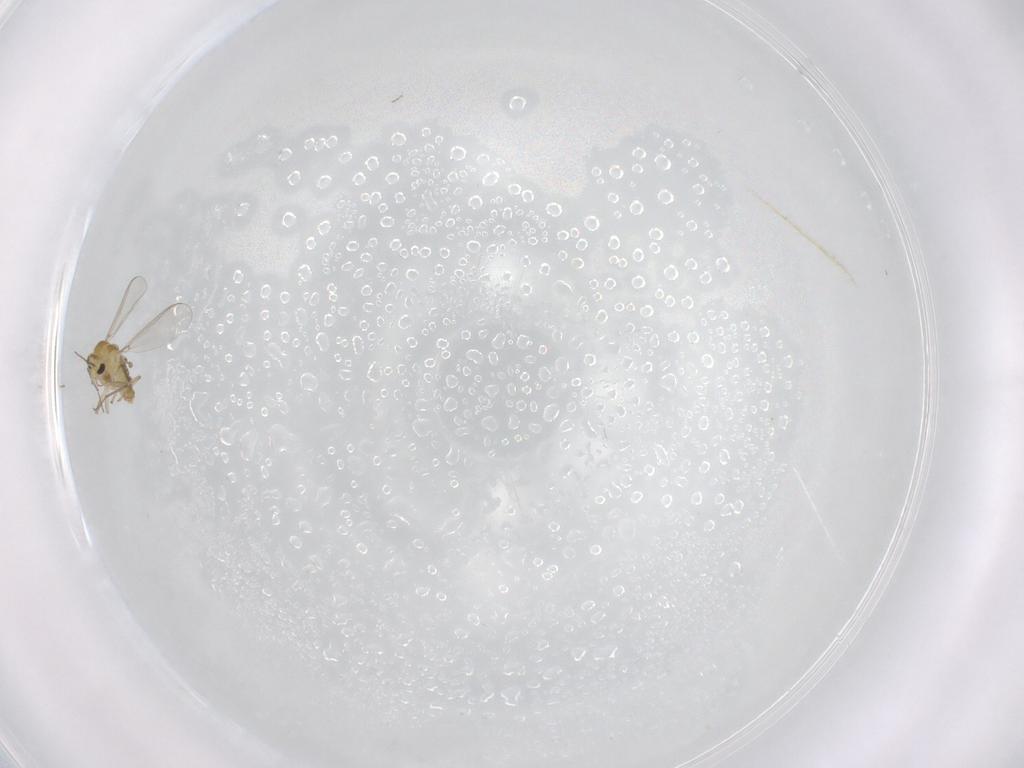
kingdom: Animalia
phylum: Arthropoda
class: Insecta
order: Diptera
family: Chironomidae
